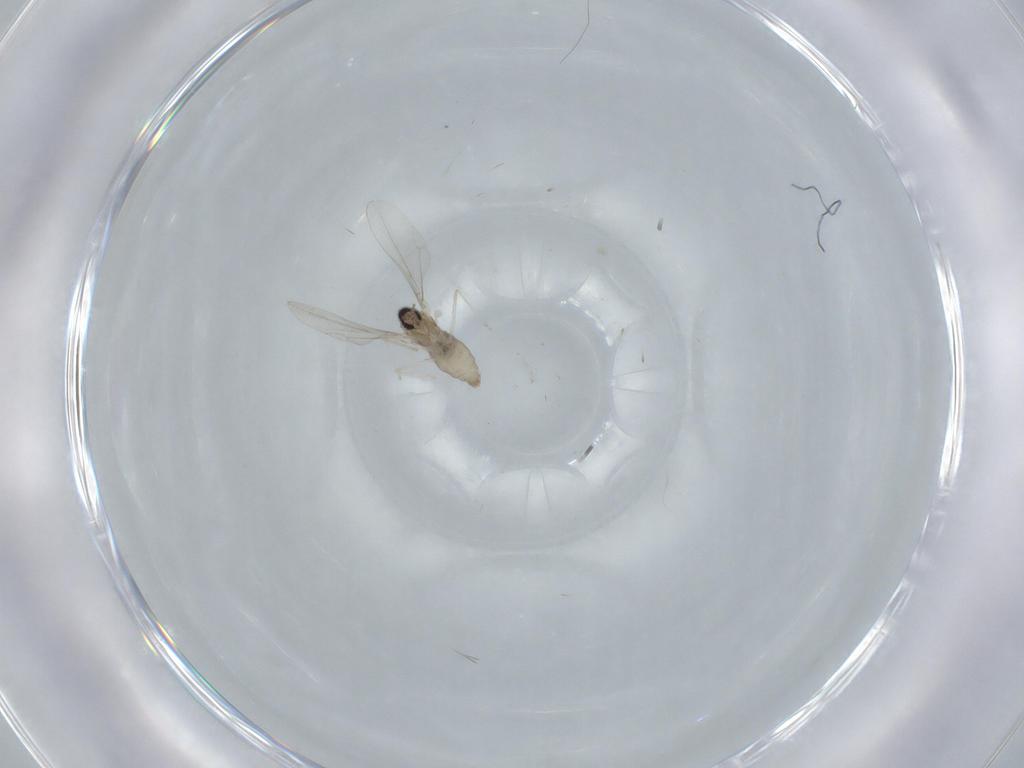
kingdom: Animalia
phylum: Arthropoda
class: Insecta
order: Diptera
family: Cecidomyiidae
